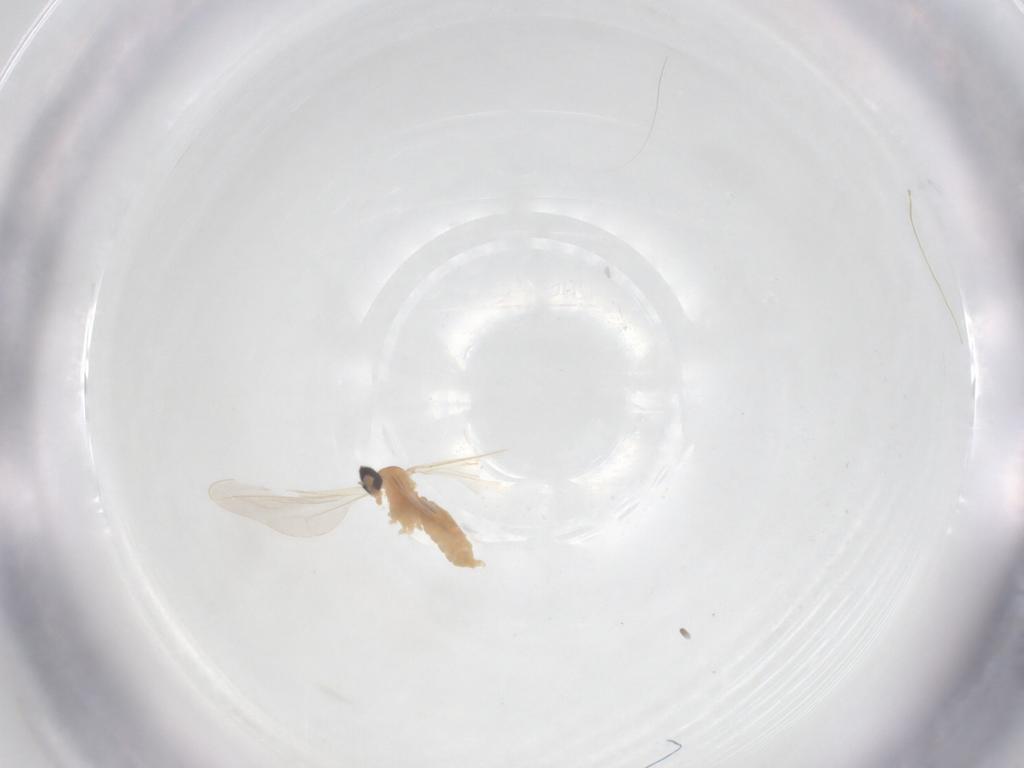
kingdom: Animalia
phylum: Arthropoda
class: Insecta
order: Diptera
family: Cecidomyiidae
